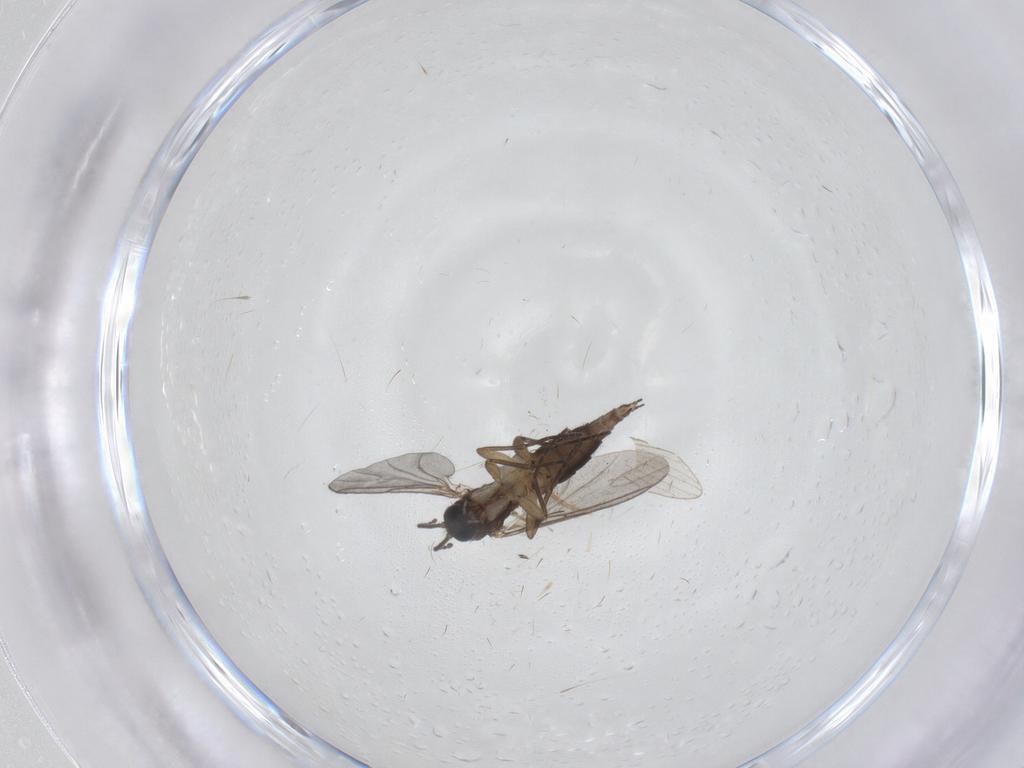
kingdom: Animalia
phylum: Arthropoda
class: Insecta
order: Diptera
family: Sciaridae
